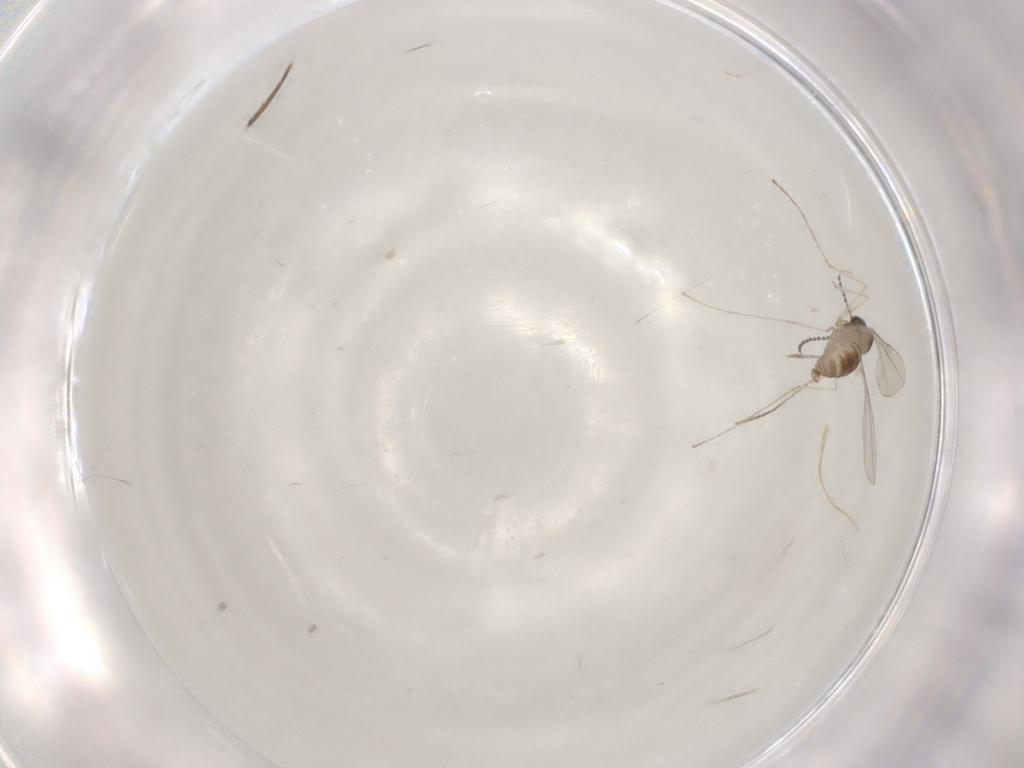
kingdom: Animalia
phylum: Arthropoda
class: Insecta
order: Diptera
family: Cecidomyiidae
